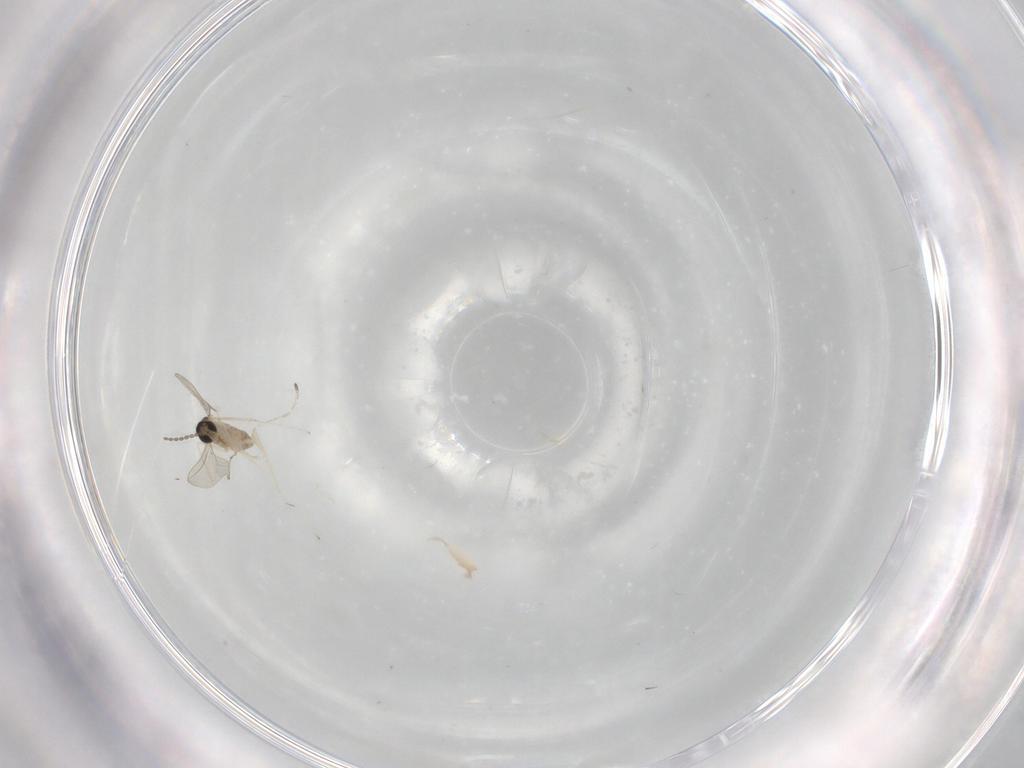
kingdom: Animalia
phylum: Arthropoda
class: Insecta
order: Diptera
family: Cecidomyiidae
